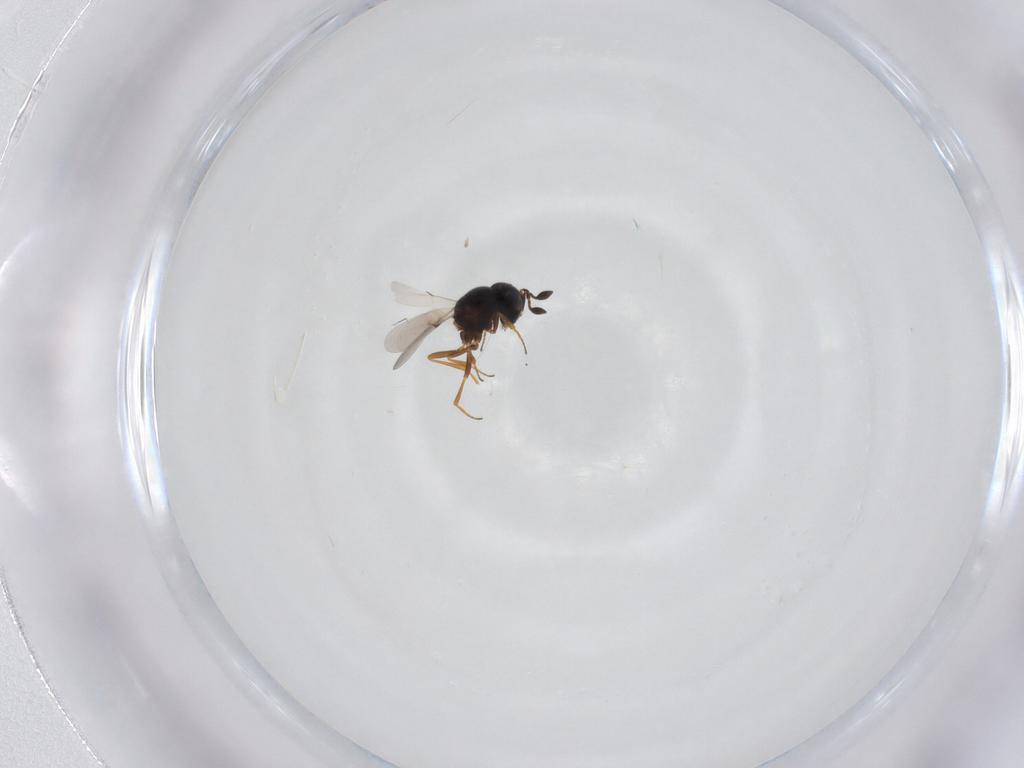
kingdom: Animalia
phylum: Arthropoda
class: Insecta
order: Hymenoptera
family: Scelionidae
